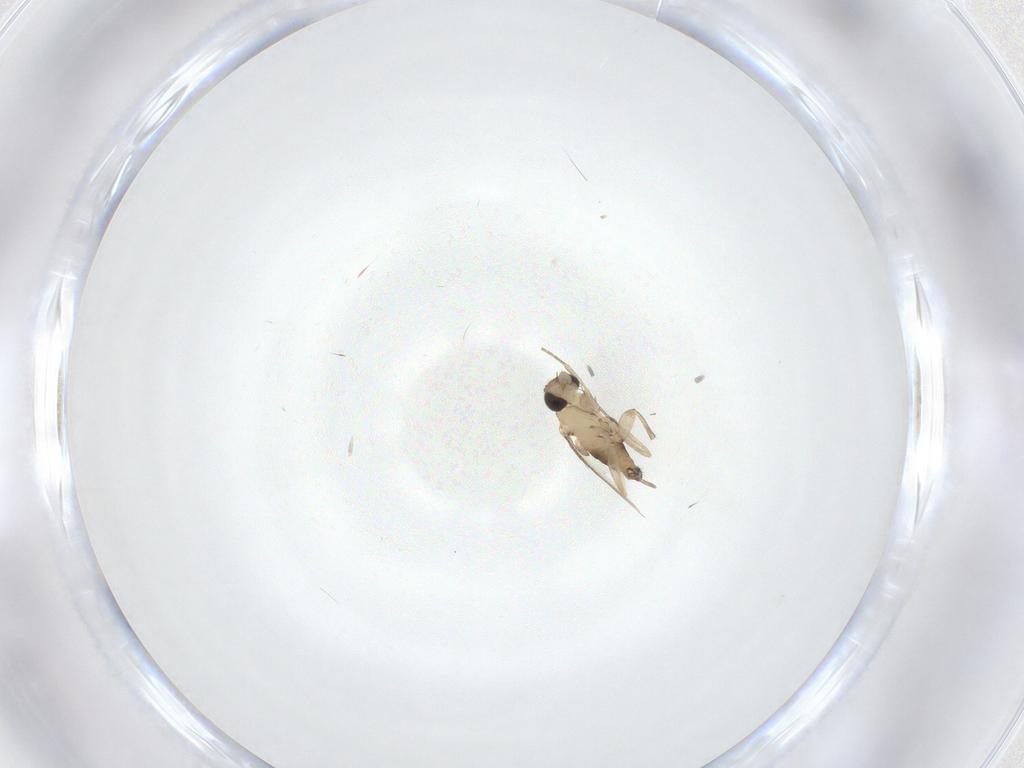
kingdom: Animalia
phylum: Arthropoda
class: Insecta
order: Diptera
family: Phoridae
